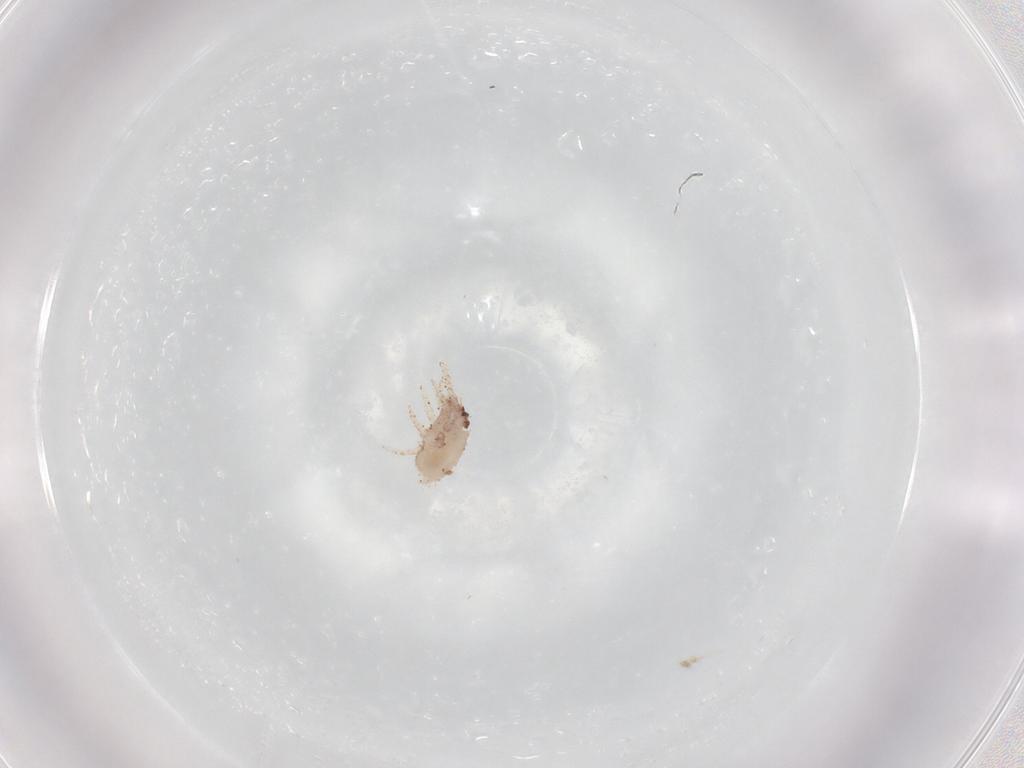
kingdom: Animalia
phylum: Arthropoda
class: Arachnida
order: Sarcoptiformes
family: Crotoniidae
